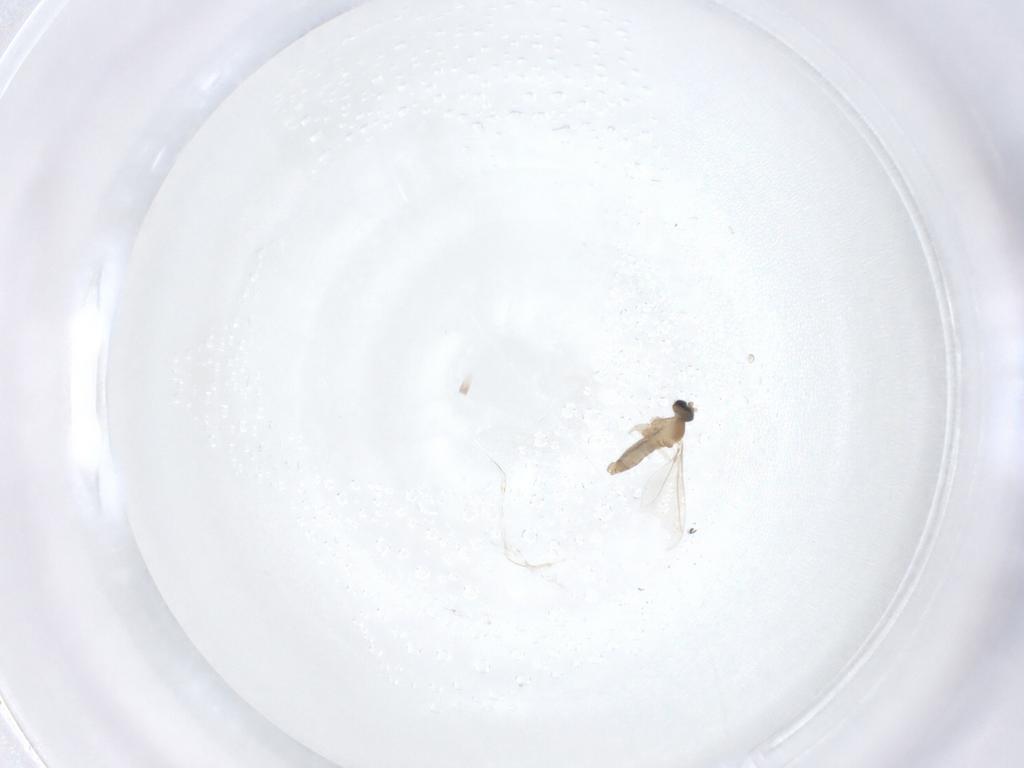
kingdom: Animalia
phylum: Arthropoda
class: Insecta
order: Diptera
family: Cecidomyiidae
